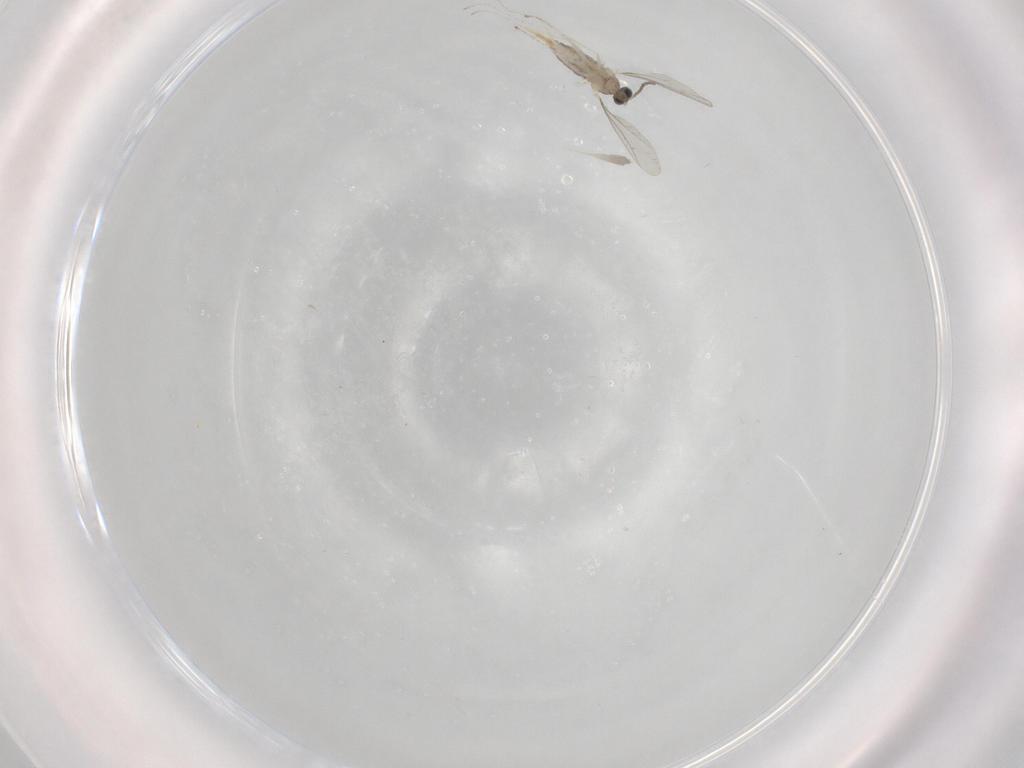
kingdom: Animalia
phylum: Arthropoda
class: Insecta
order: Diptera
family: Cecidomyiidae
